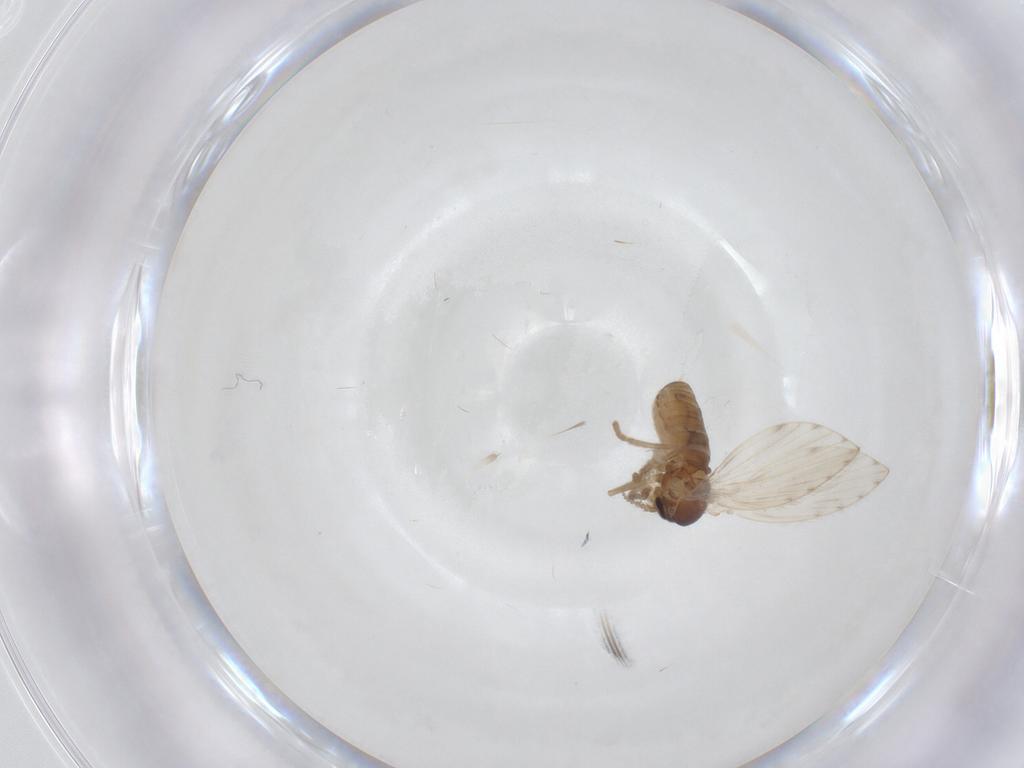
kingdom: Animalia
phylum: Arthropoda
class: Insecta
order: Diptera
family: Psychodidae
